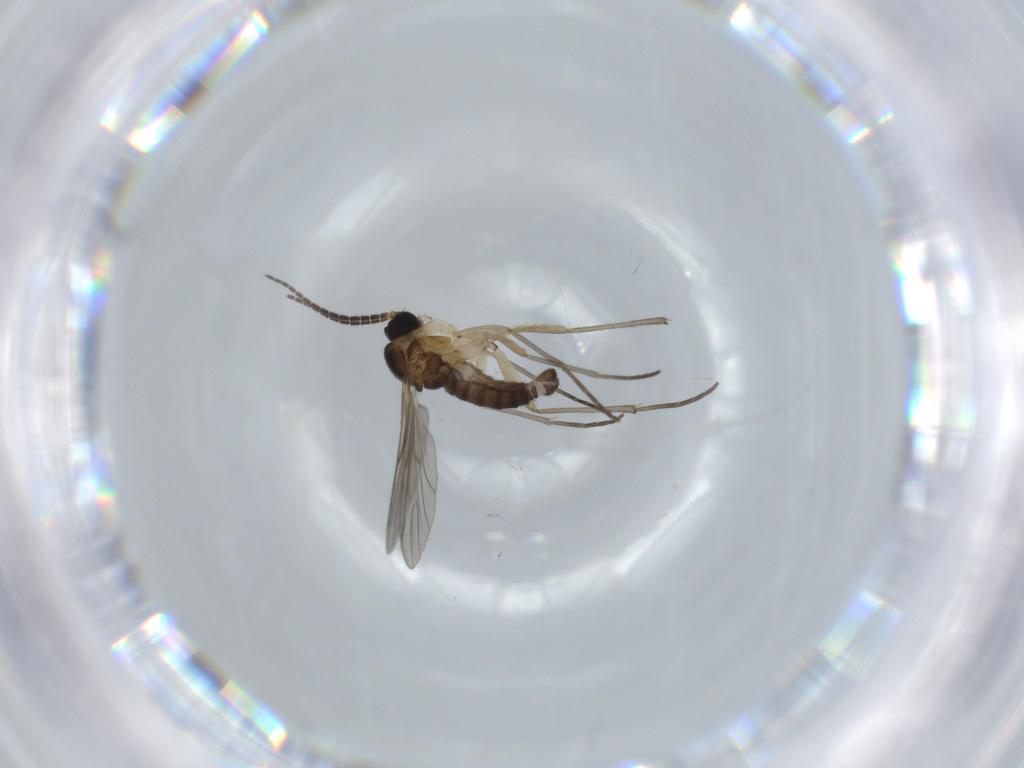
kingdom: Animalia
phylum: Arthropoda
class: Insecta
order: Diptera
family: Sciaridae
